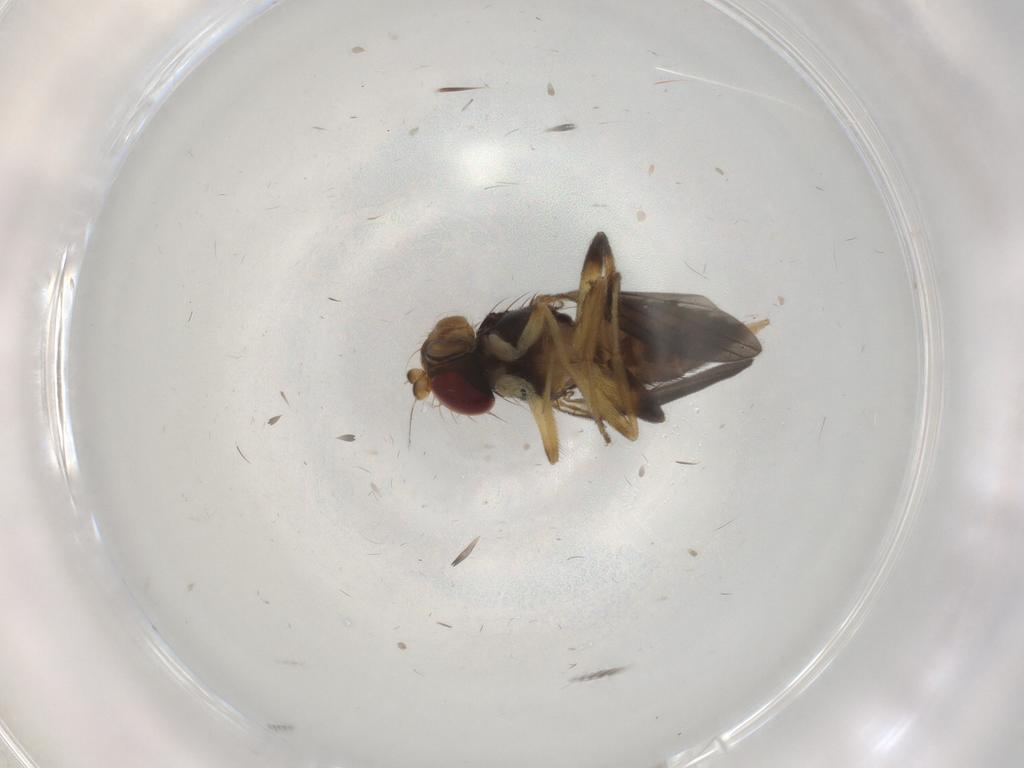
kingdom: Animalia
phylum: Arthropoda
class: Insecta
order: Diptera
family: Clusiidae
